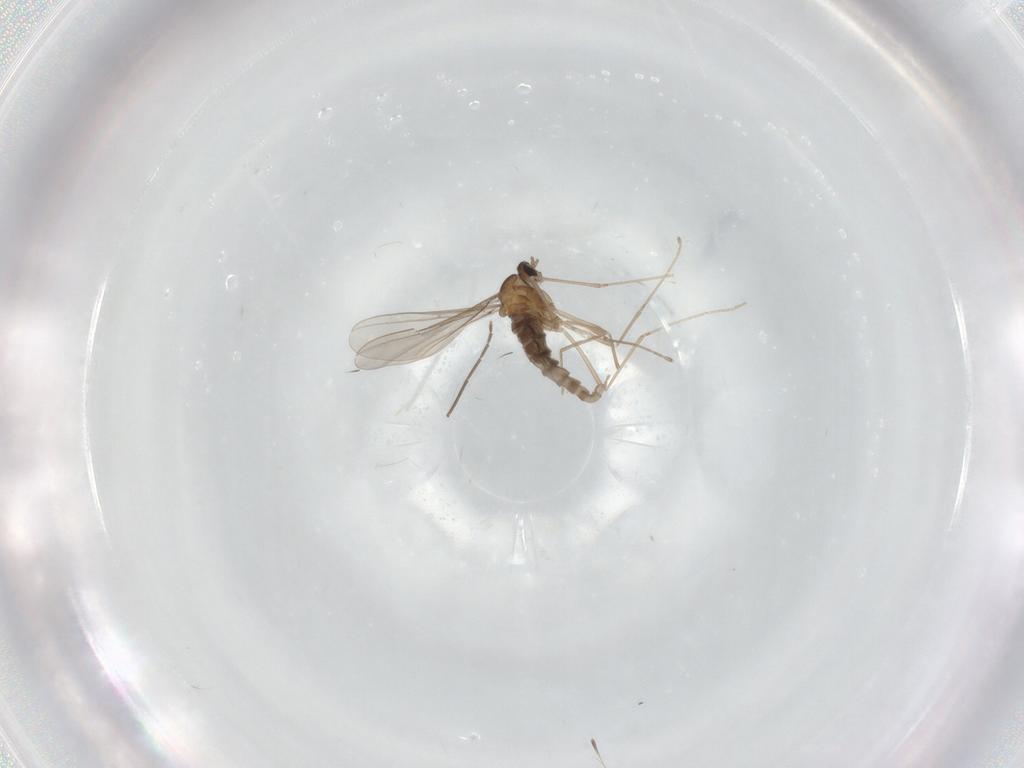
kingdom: Animalia
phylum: Arthropoda
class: Insecta
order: Diptera
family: Cecidomyiidae
